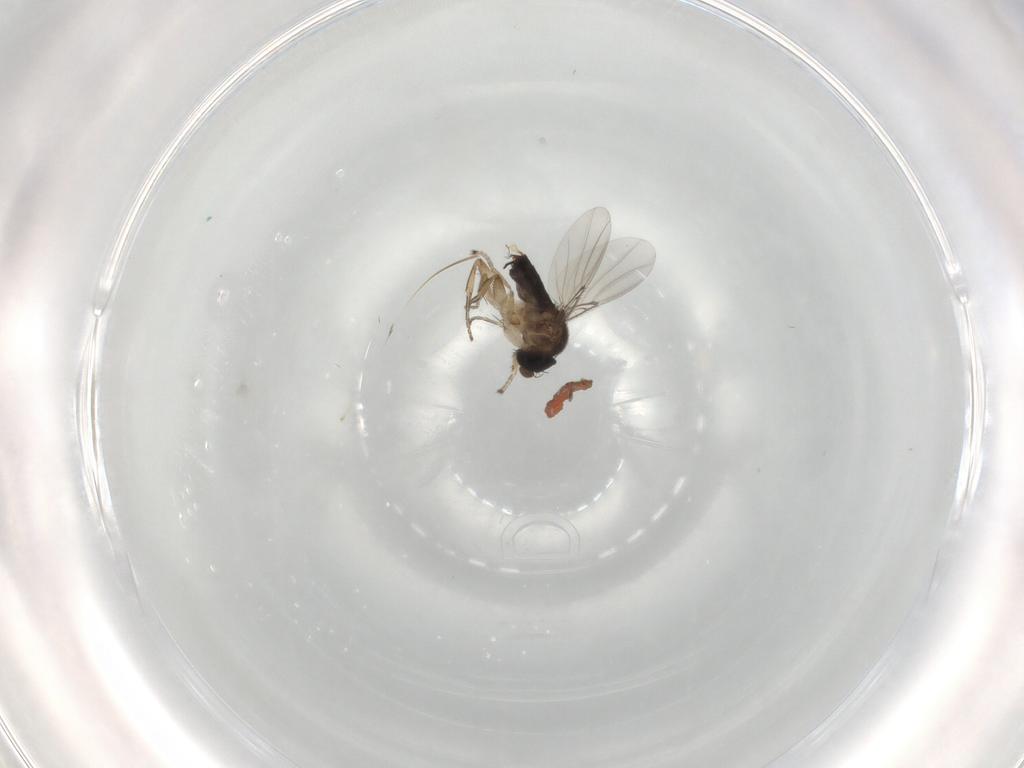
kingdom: Animalia
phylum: Arthropoda
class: Insecta
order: Diptera
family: Phoridae
